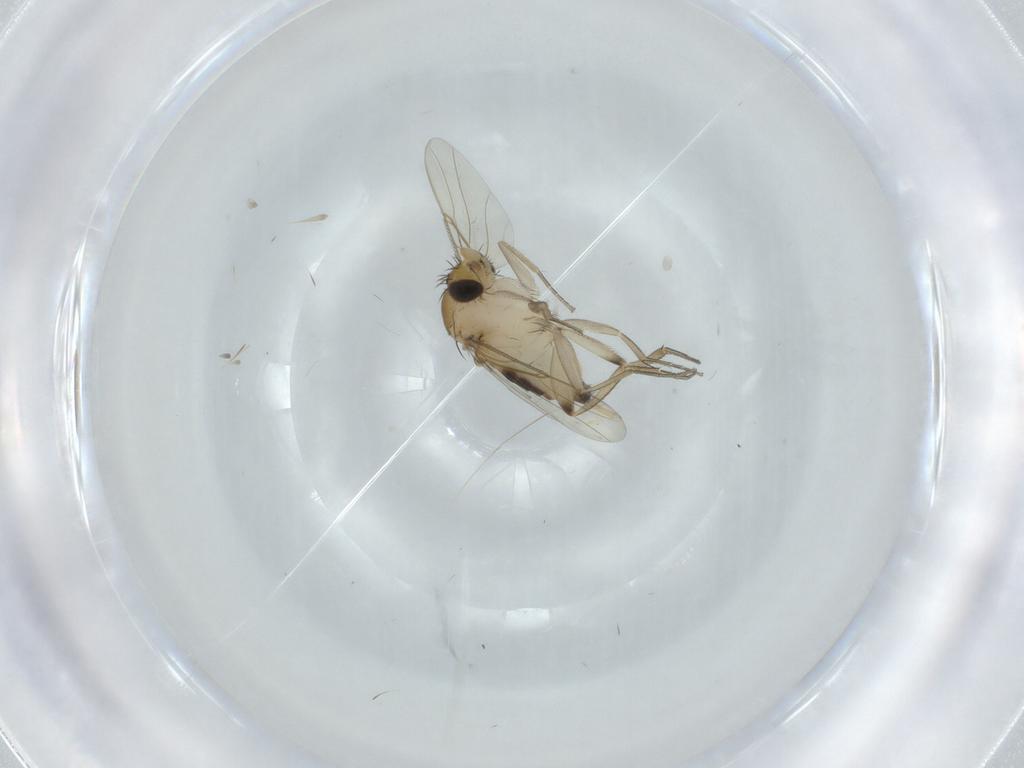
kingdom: Animalia
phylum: Arthropoda
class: Insecta
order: Diptera
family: Phoridae
